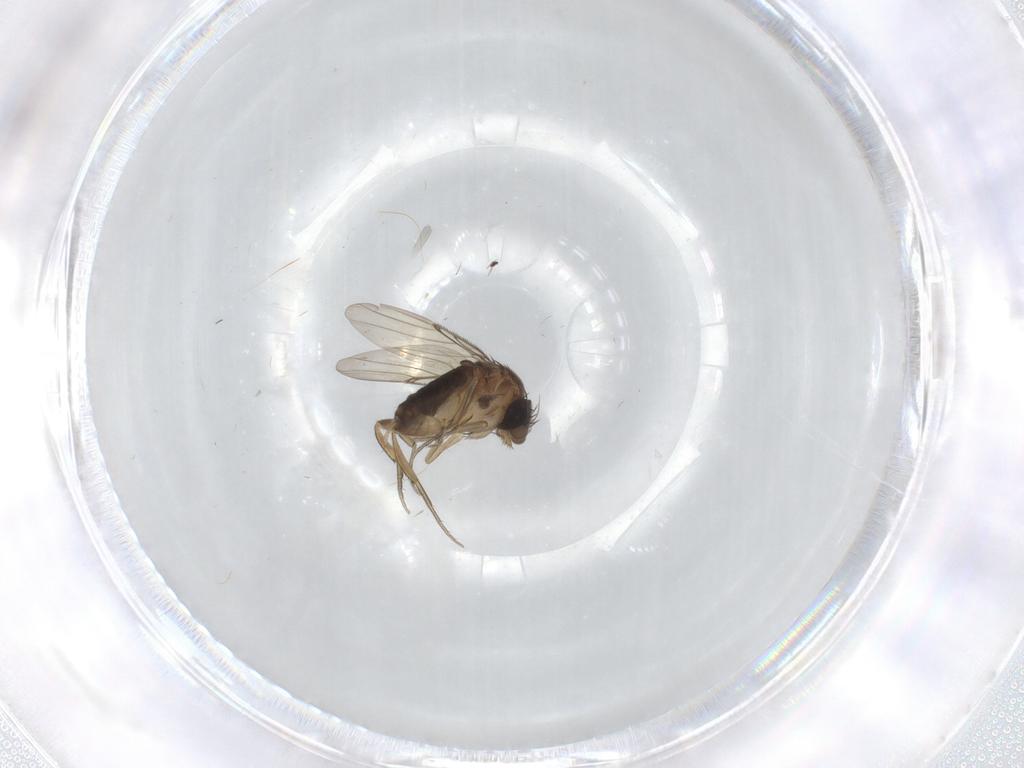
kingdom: Animalia
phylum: Arthropoda
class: Insecta
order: Diptera
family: Phoridae
